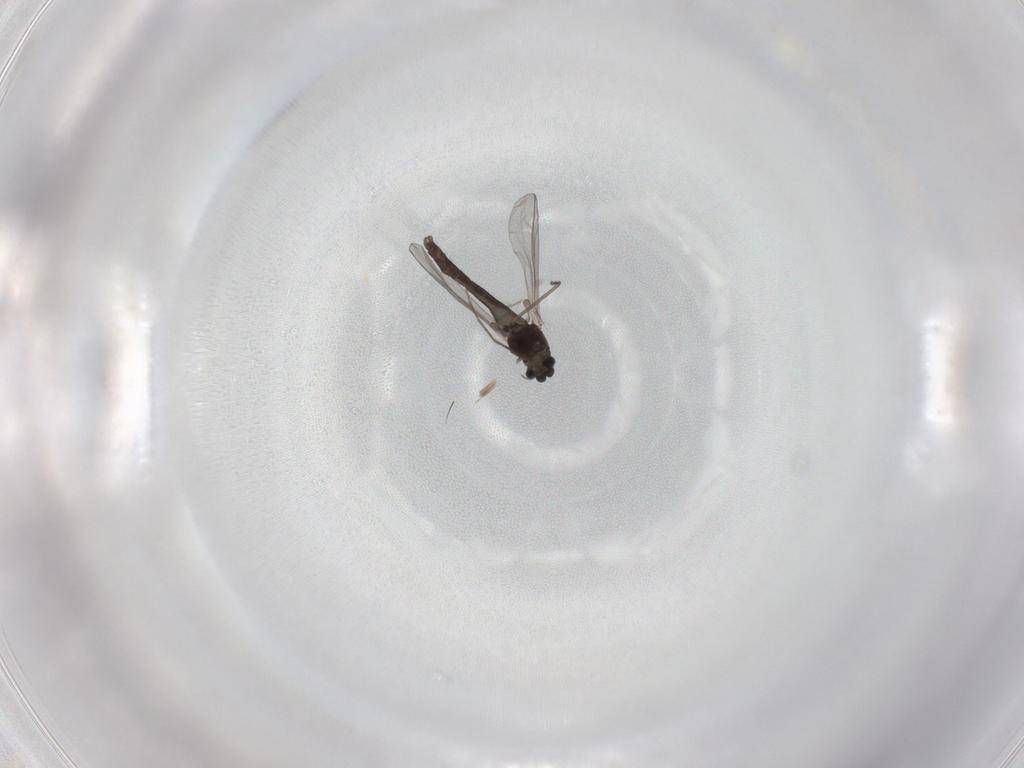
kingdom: Animalia
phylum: Arthropoda
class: Insecta
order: Diptera
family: Chironomidae
